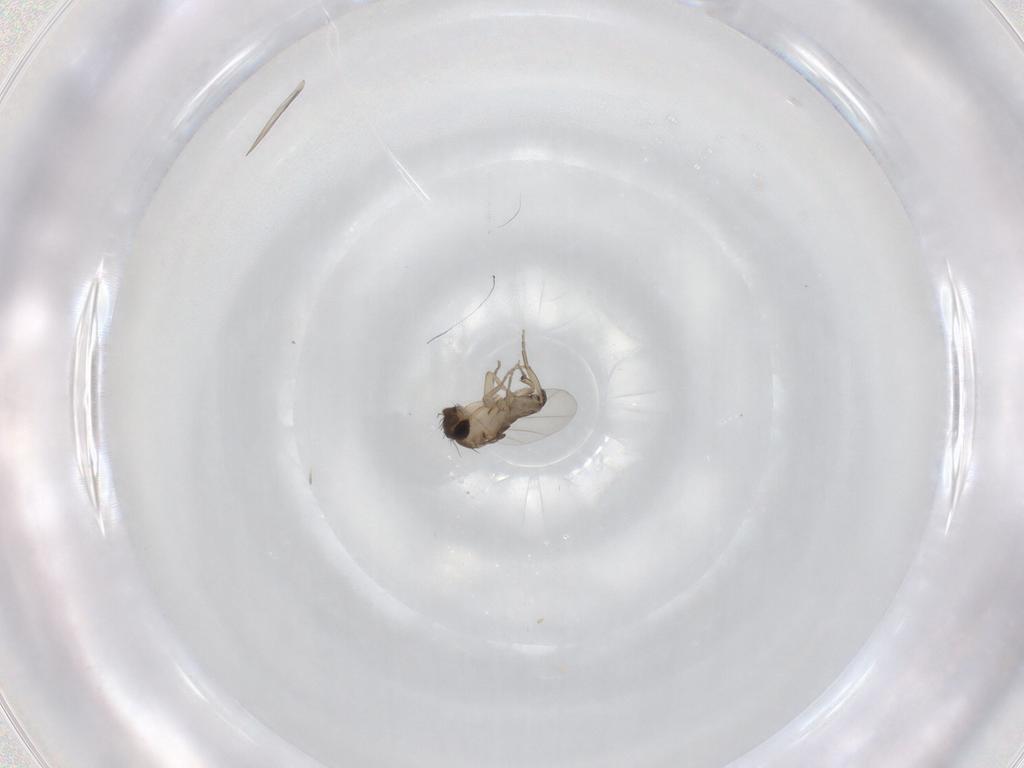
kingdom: Animalia
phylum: Arthropoda
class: Insecta
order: Diptera
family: Phoridae
